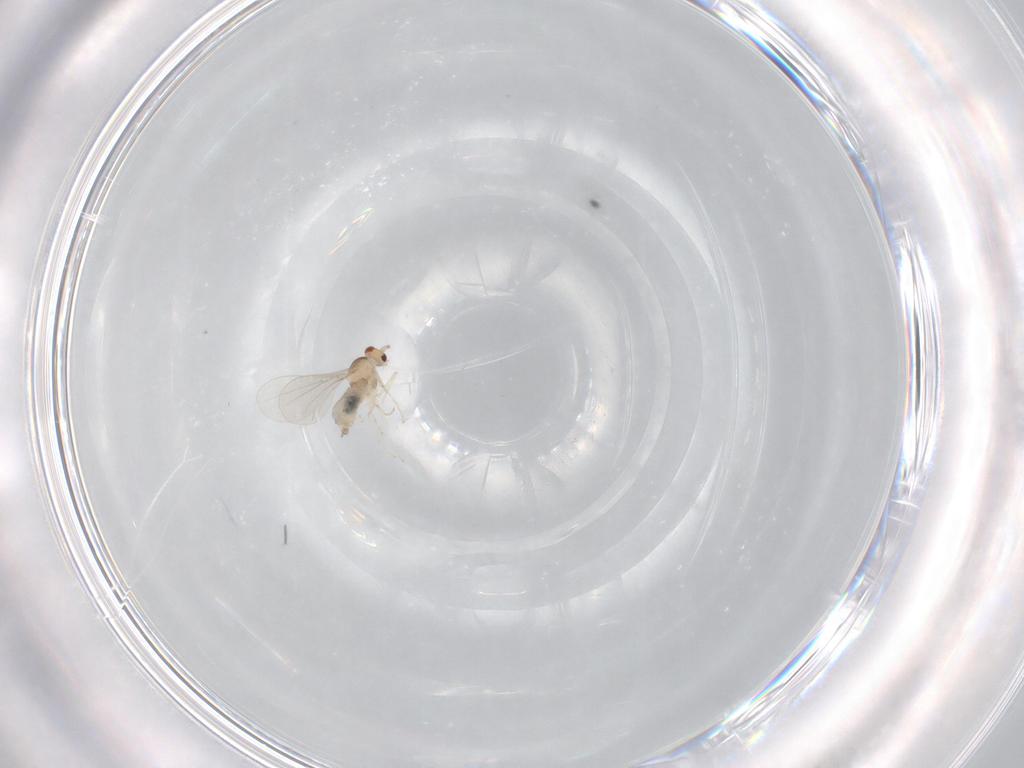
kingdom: Animalia
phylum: Arthropoda
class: Insecta
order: Diptera
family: Cecidomyiidae
